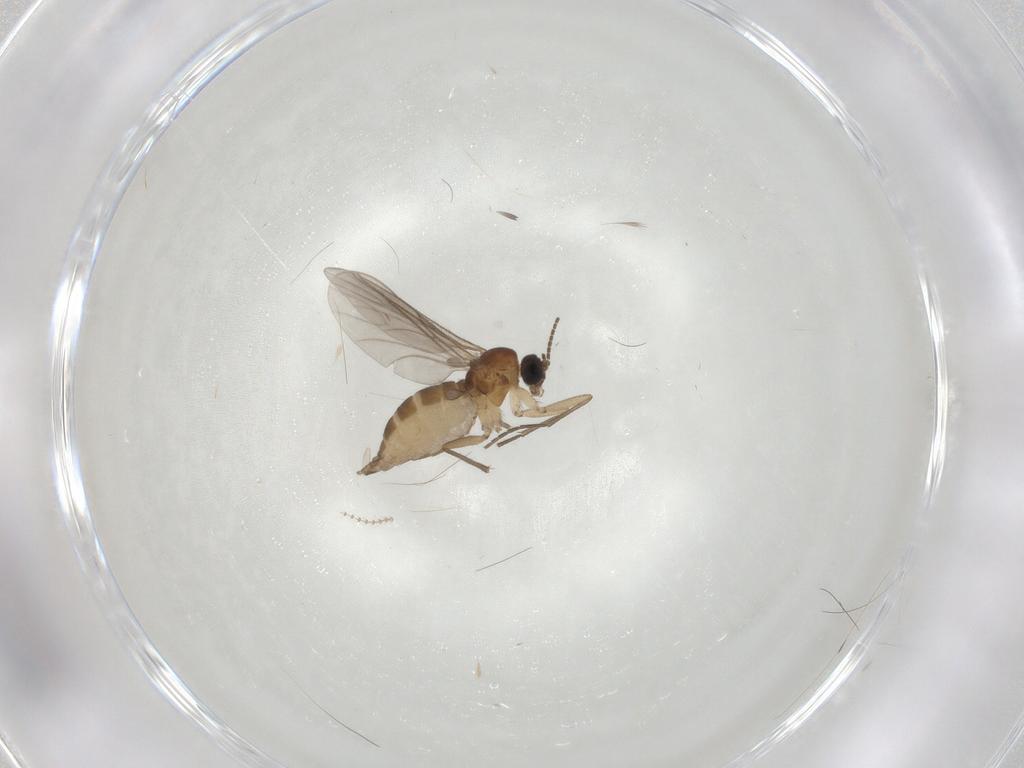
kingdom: Animalia
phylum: Arthropoda
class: Insecta
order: Diptera
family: Cecidomyiidae
